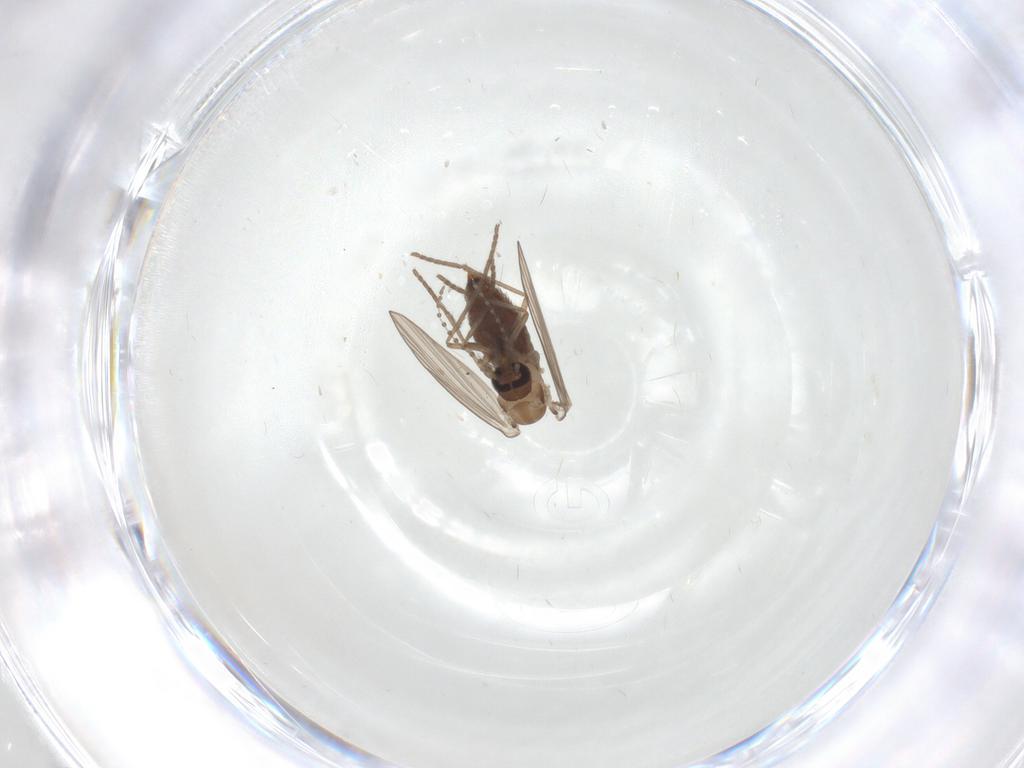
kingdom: Animalia
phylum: Arthropoda
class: Insecta
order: Diptera
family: Psychodidae
